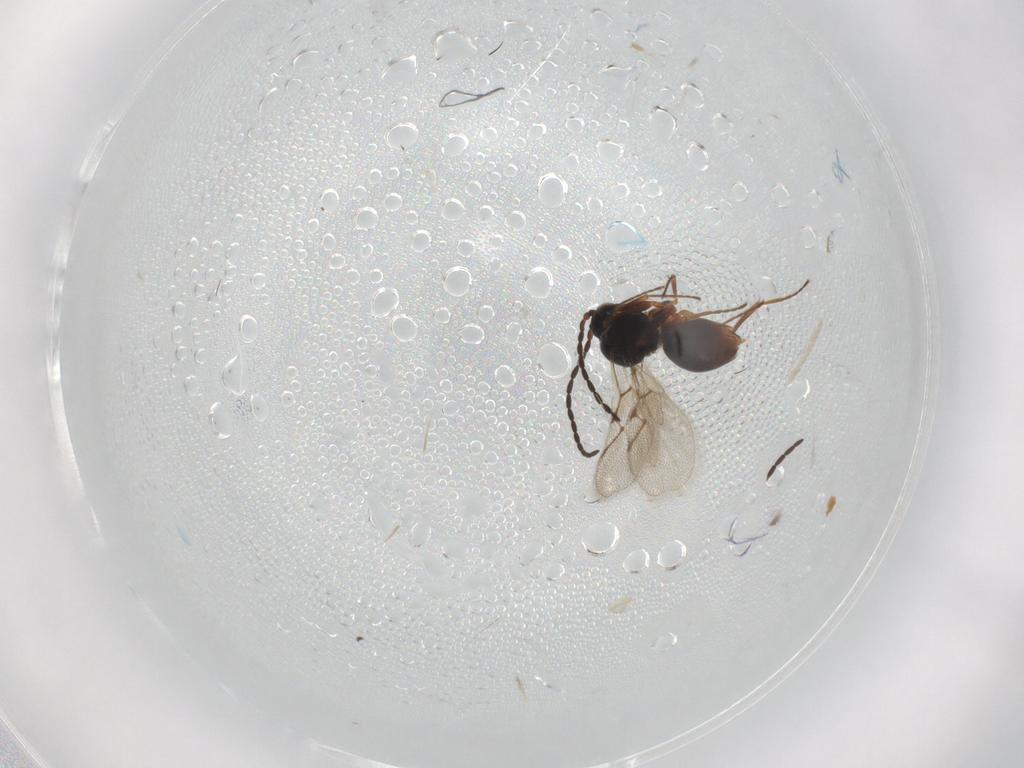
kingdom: Animalia
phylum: Arthropoda
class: Insecta
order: Hymenoptera
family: Figitidae
